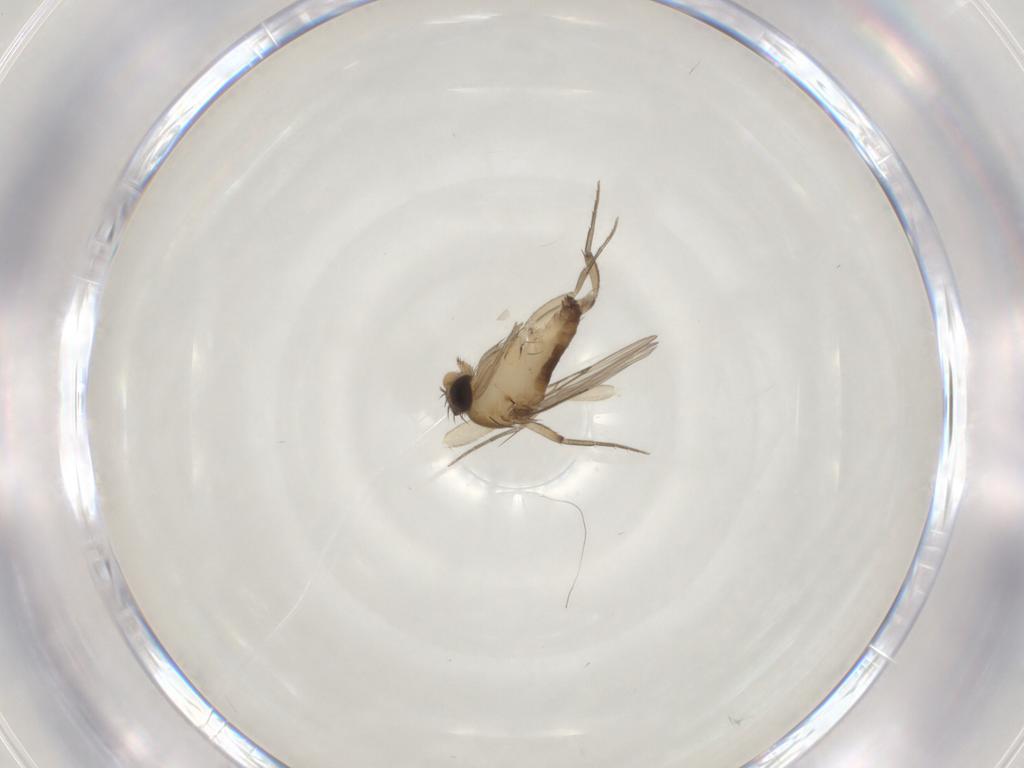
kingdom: Animalia
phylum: Arthropoda
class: Insecta
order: Diptera
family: Phoridae
